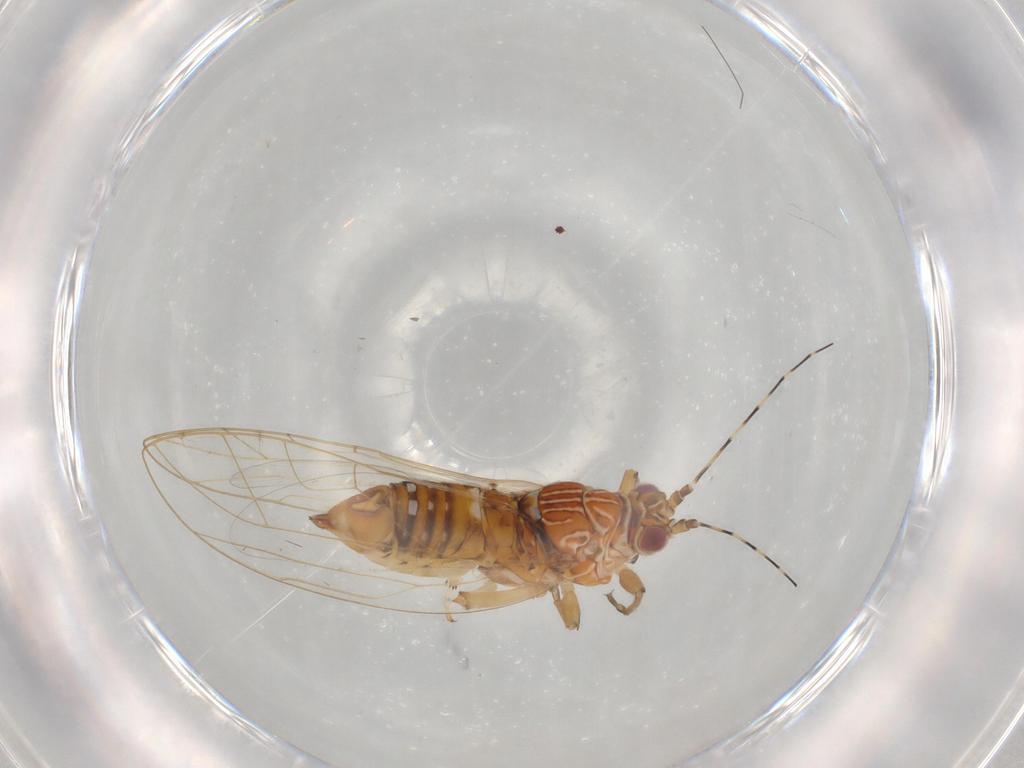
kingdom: Animalia
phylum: Arthropoda
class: Insecta
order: Hemiptera
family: Carsidaridae
